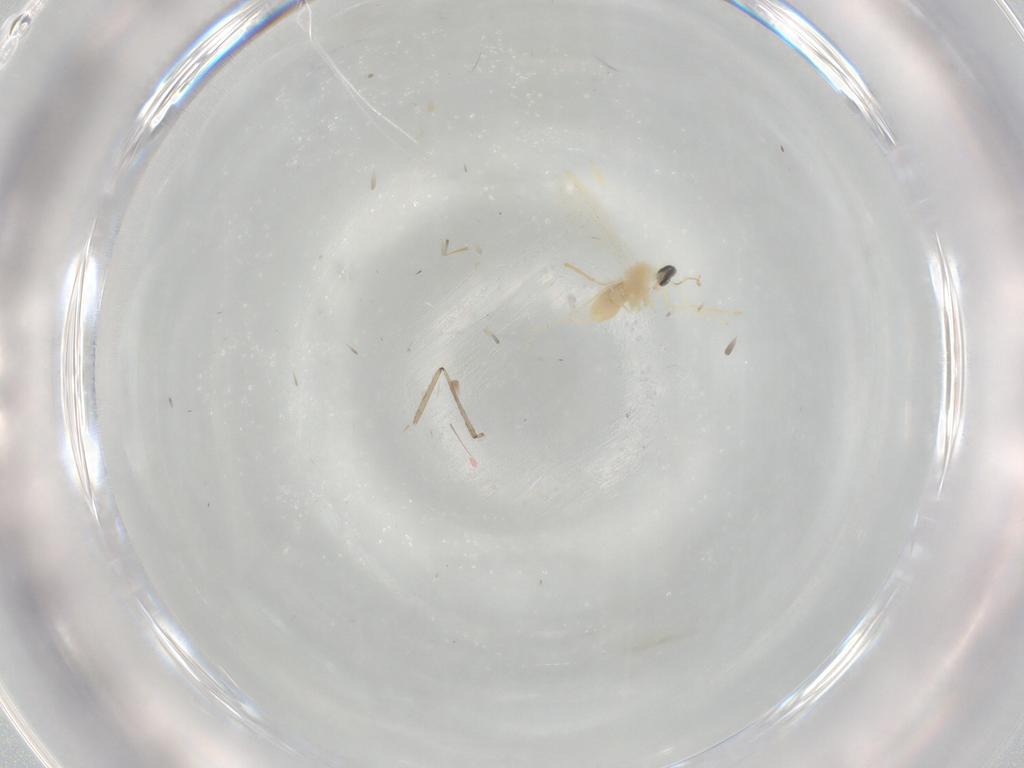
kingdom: Animalia
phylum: Arthropoda
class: Insecta
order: Diptera
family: Cecidomyiidae
